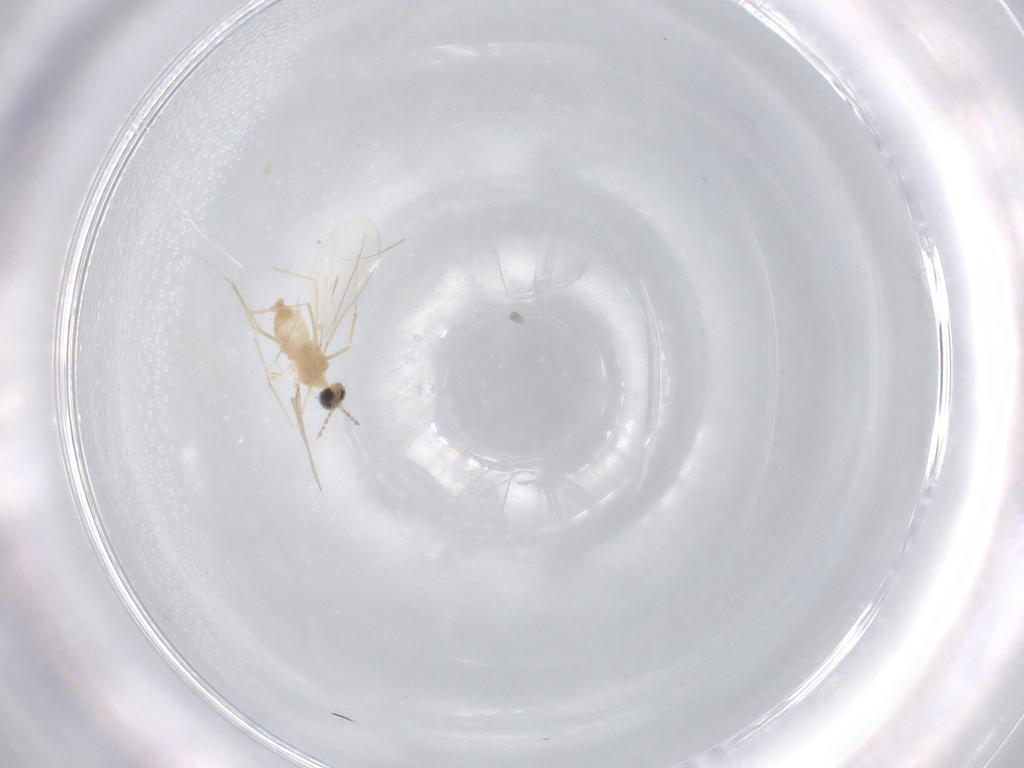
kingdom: Animalia
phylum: Arthropoda
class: Insecta
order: Diptera
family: Cecidomyiidae
